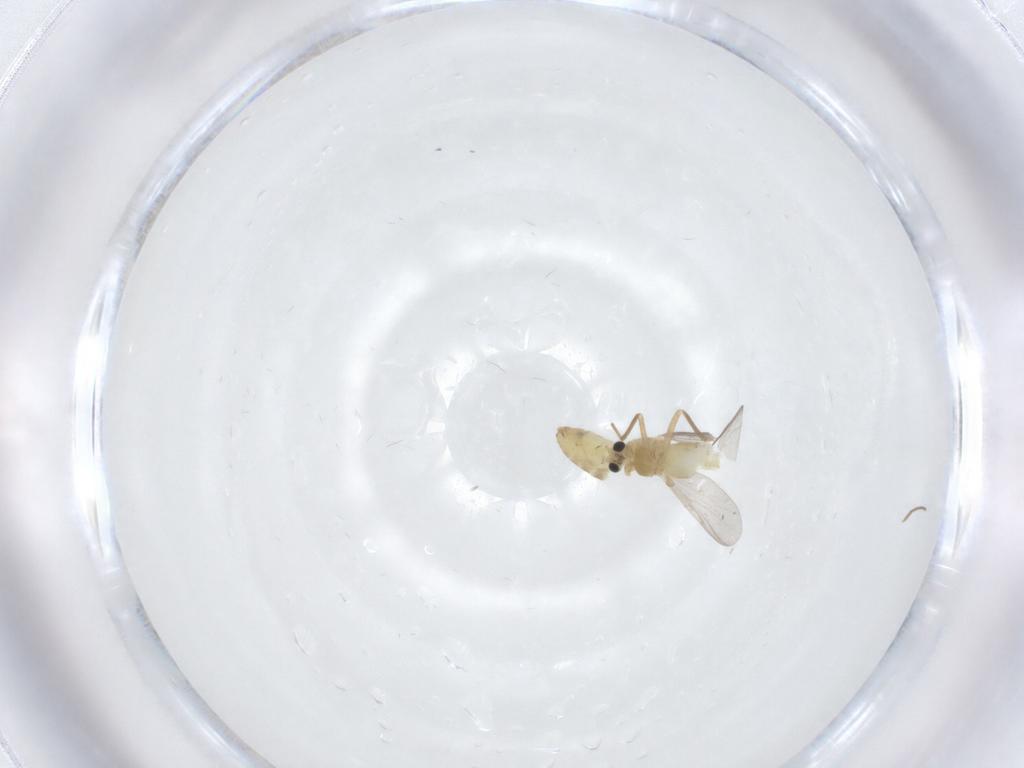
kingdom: Animalia
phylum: Arthropoda
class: Insecta
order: Diptera
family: Chironomidae
